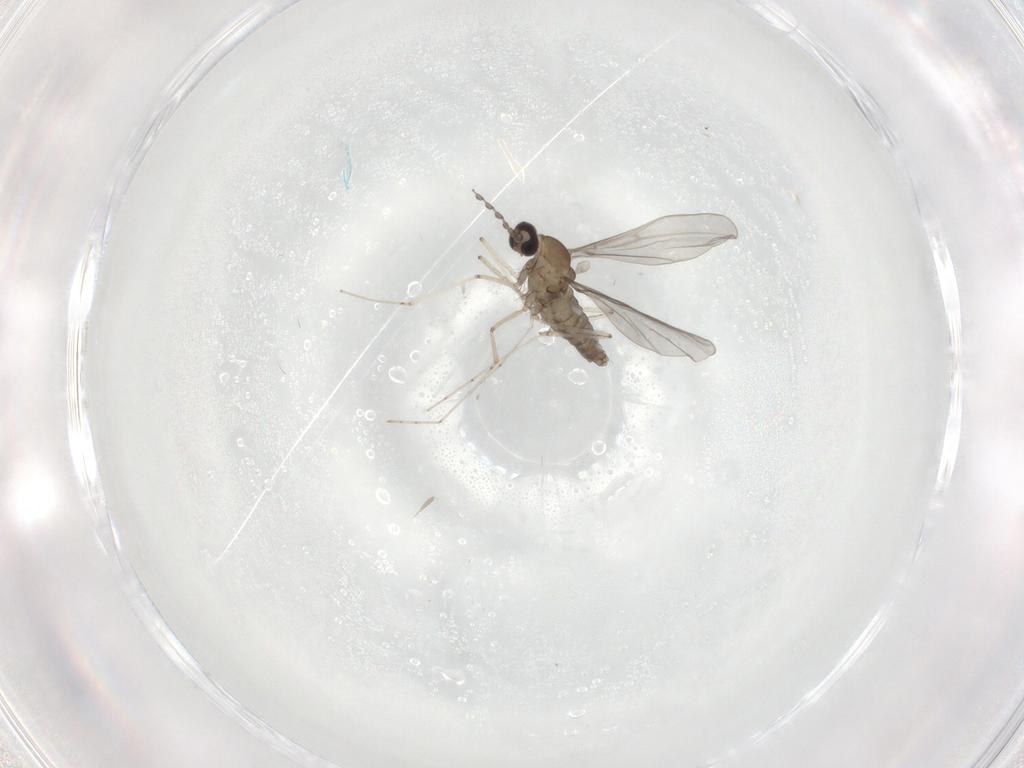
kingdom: Animalia
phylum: Arthropoda
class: Insecta
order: Diptera
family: Cecidomyiidae
